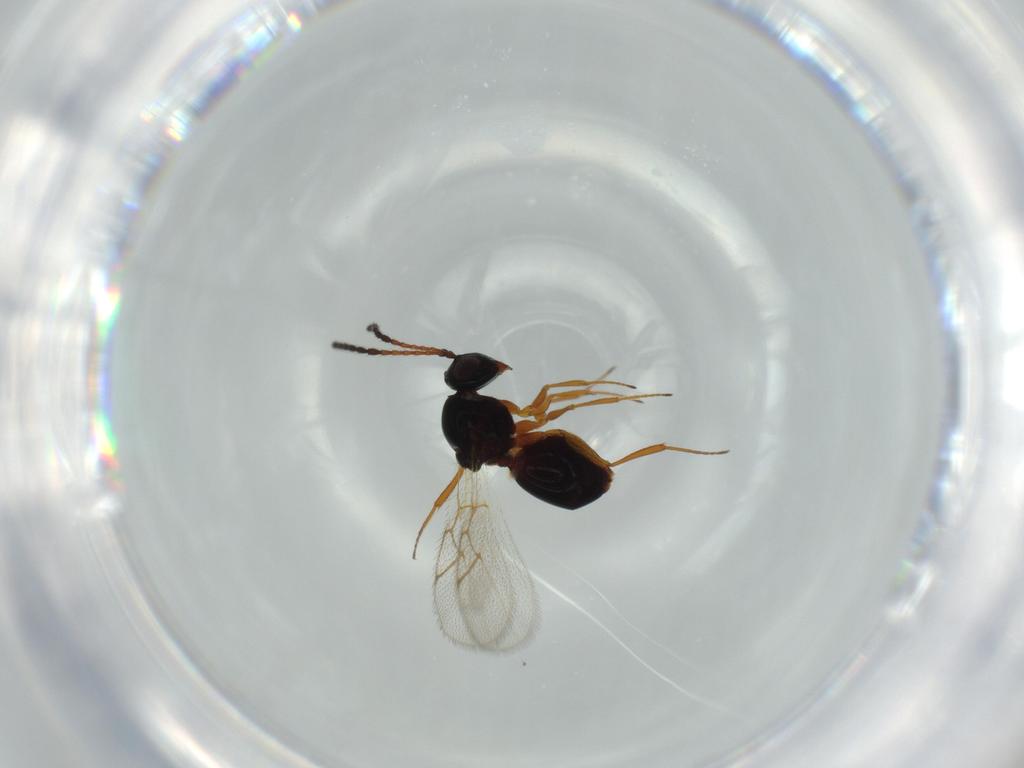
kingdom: Animalia
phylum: Arthropoda
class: Insecta
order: Hymenoptera
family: Figitidae
